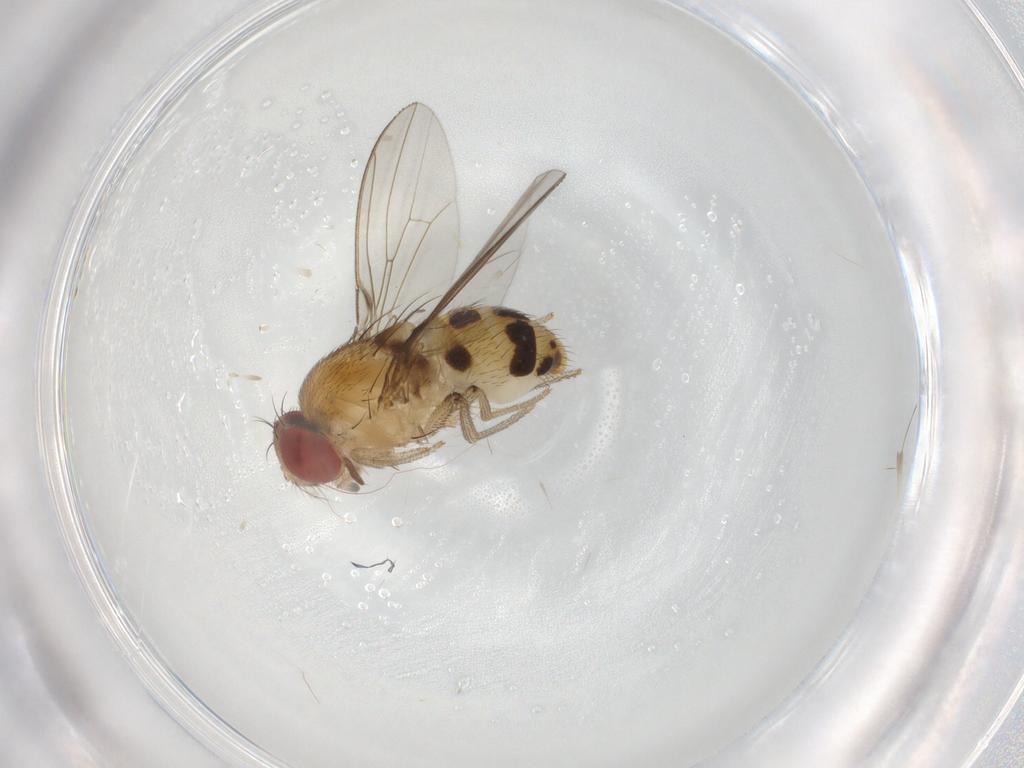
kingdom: Animalia
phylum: Arthropoda
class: Insecta
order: Diptera
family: Drosophilidae
